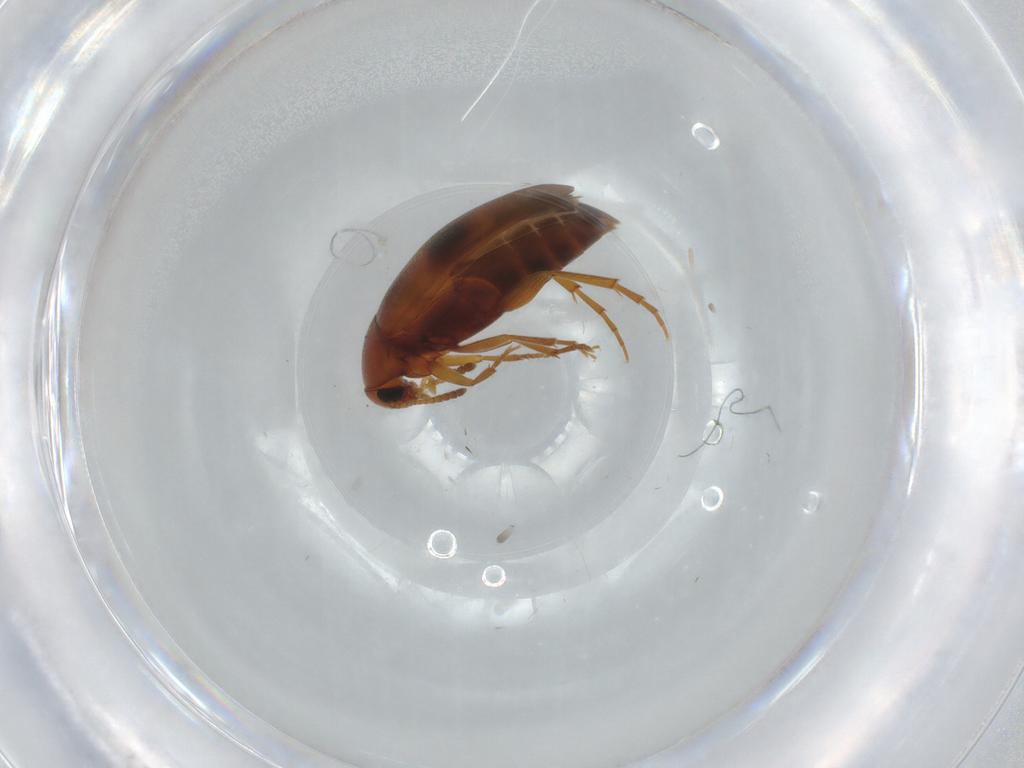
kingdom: Animalia
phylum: Arthropoda
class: Insecta
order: Coleoptera
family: Scraptiidae
